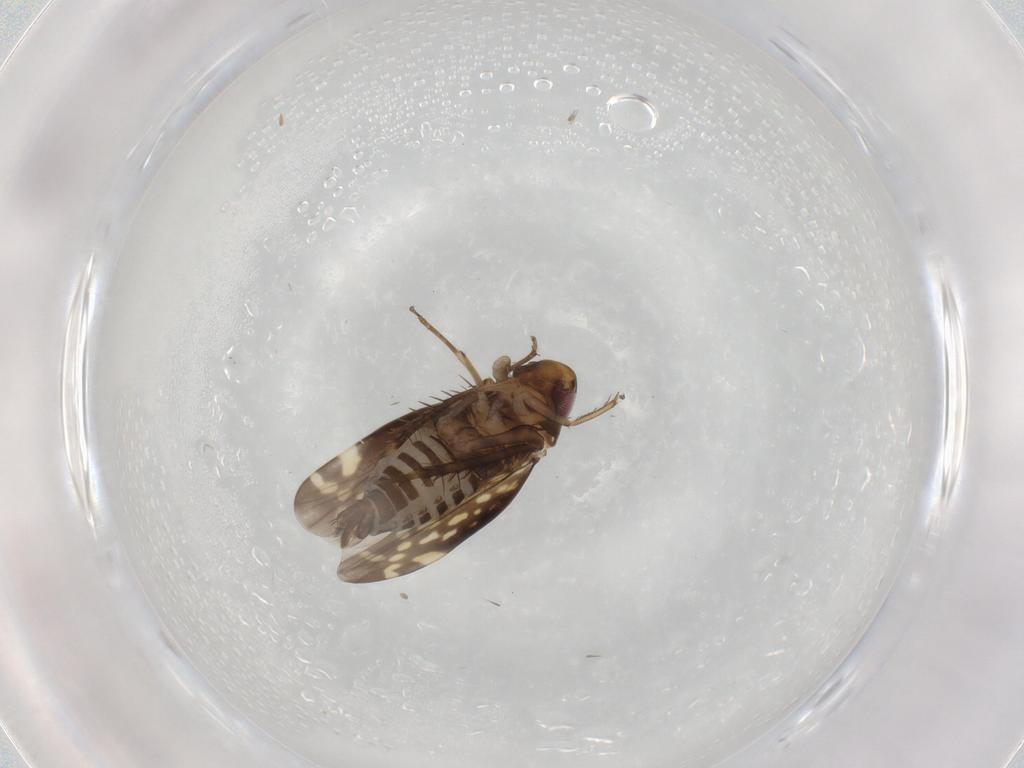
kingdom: Animalia
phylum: Arthropoda
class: Insecta
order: Hemiptera
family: Cicadellidae
